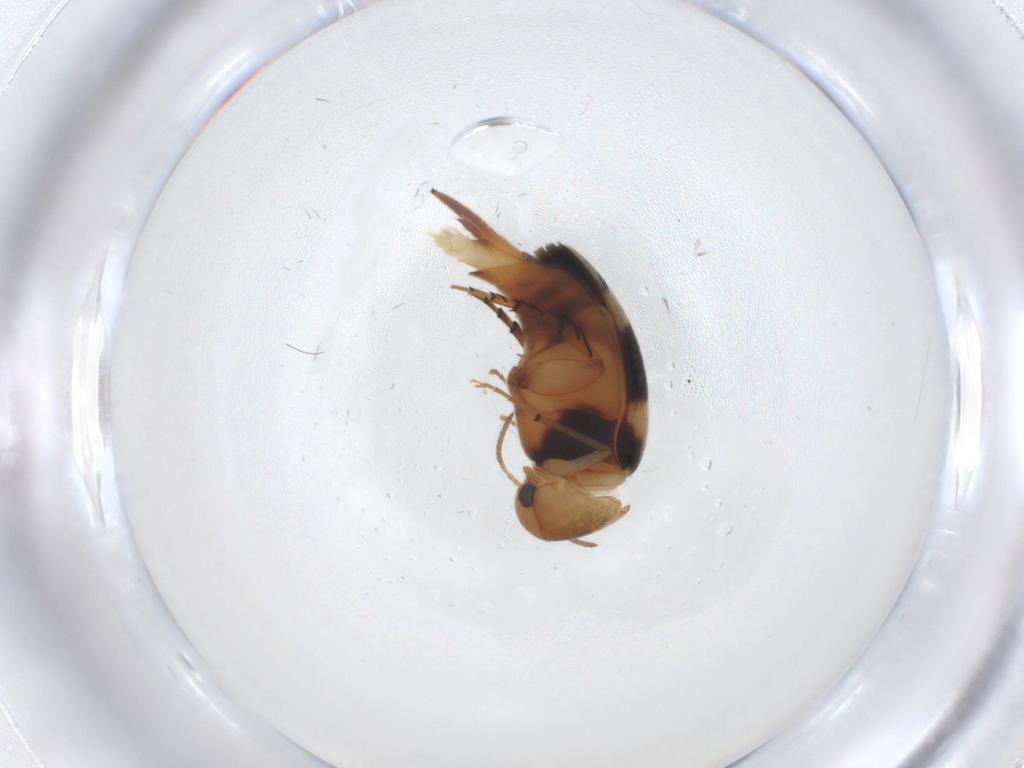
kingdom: Animalia
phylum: Arthropoda
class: Insecta
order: Coleoptera
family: Mordellidae
